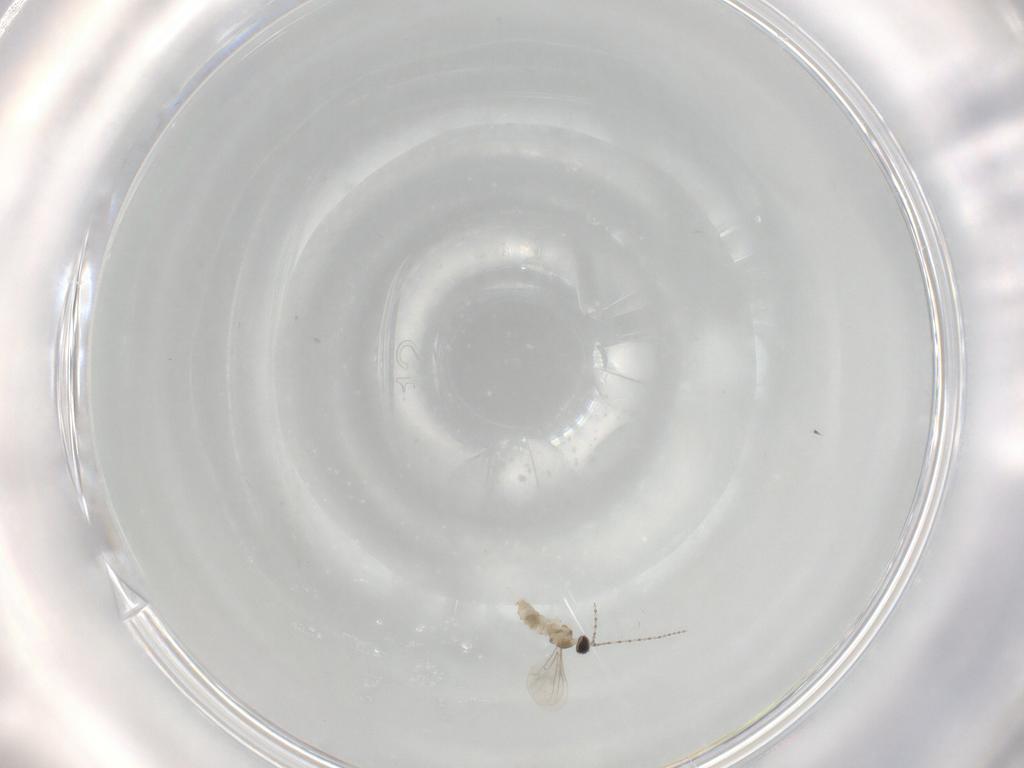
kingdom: Animalia
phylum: Arthropoda
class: Insecta
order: Diptera
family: Cecidomyiidae
